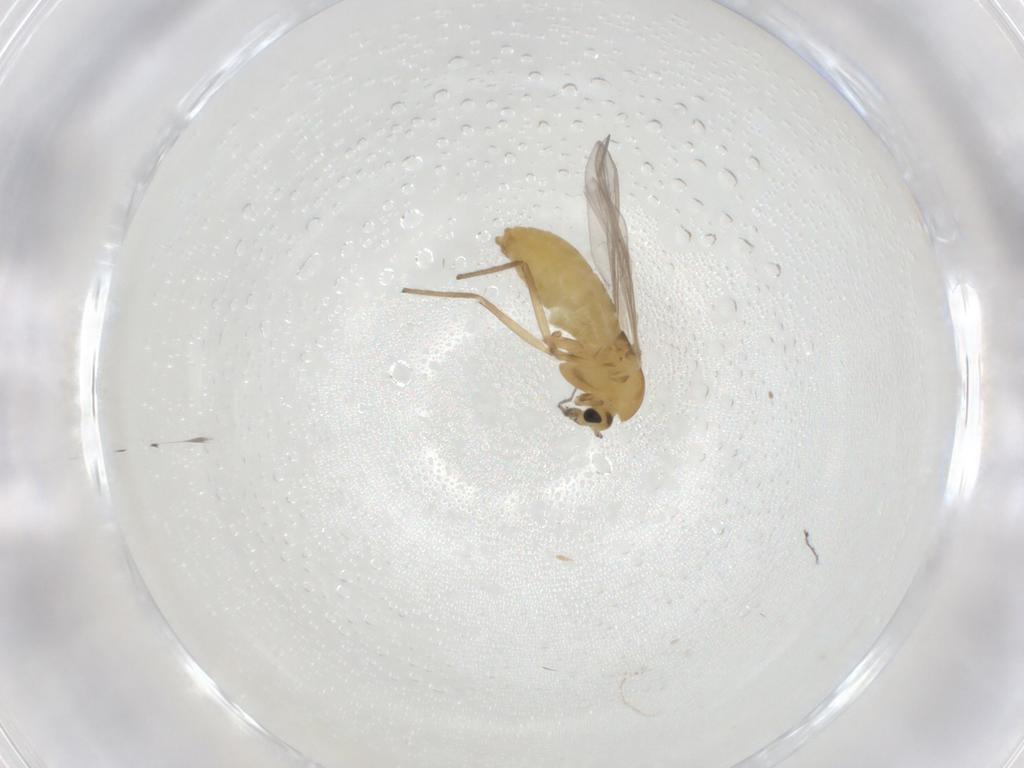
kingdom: Animalia
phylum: Arthropoda
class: Insecta
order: Diptera
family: Chironomidae
